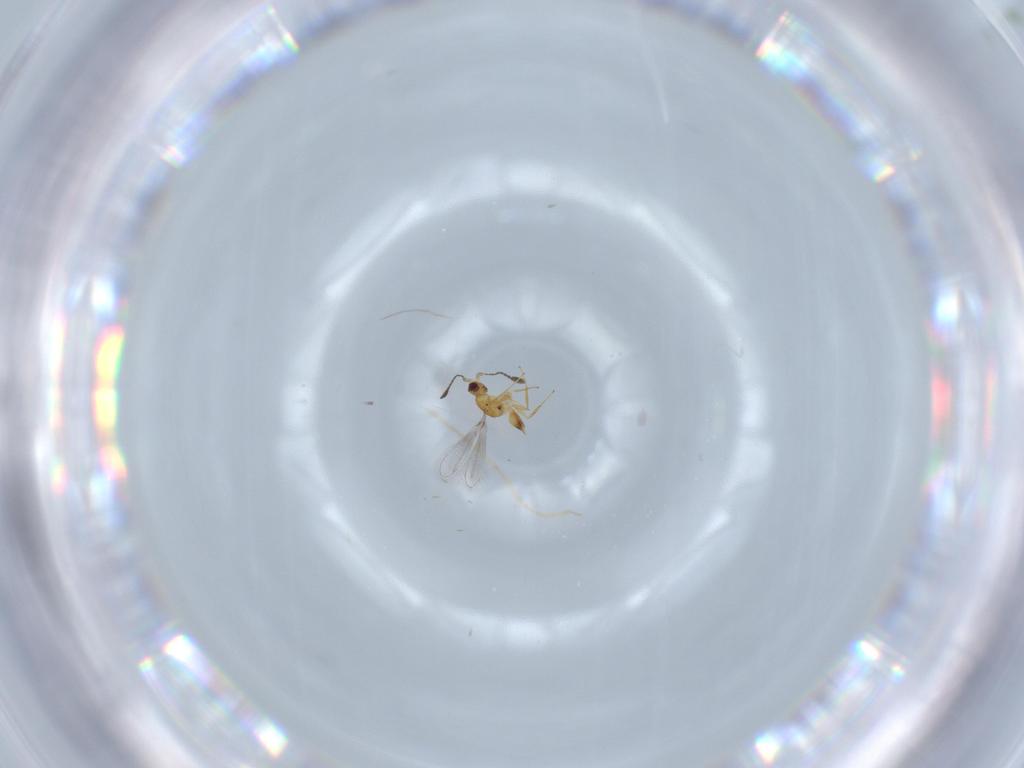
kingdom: Animalia
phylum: Arthropoda
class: Insecta
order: Hymenoptera
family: Mymaridae
